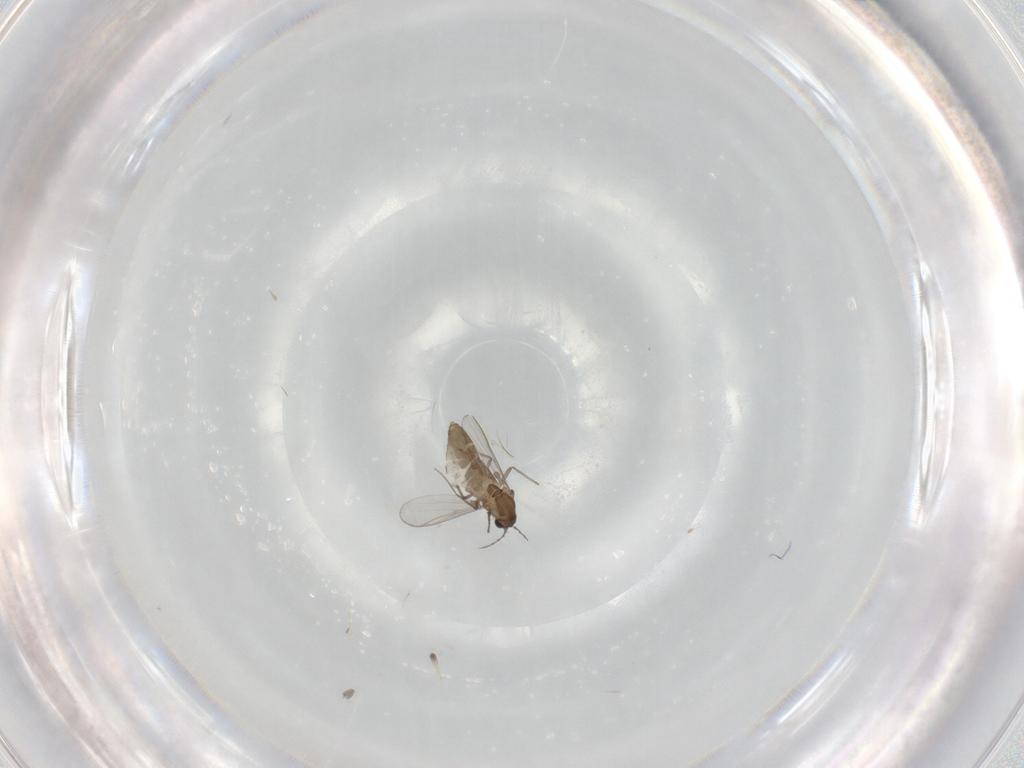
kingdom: Animalia
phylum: Arthropoda
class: Insecta
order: Diptera
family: Chironomidae
